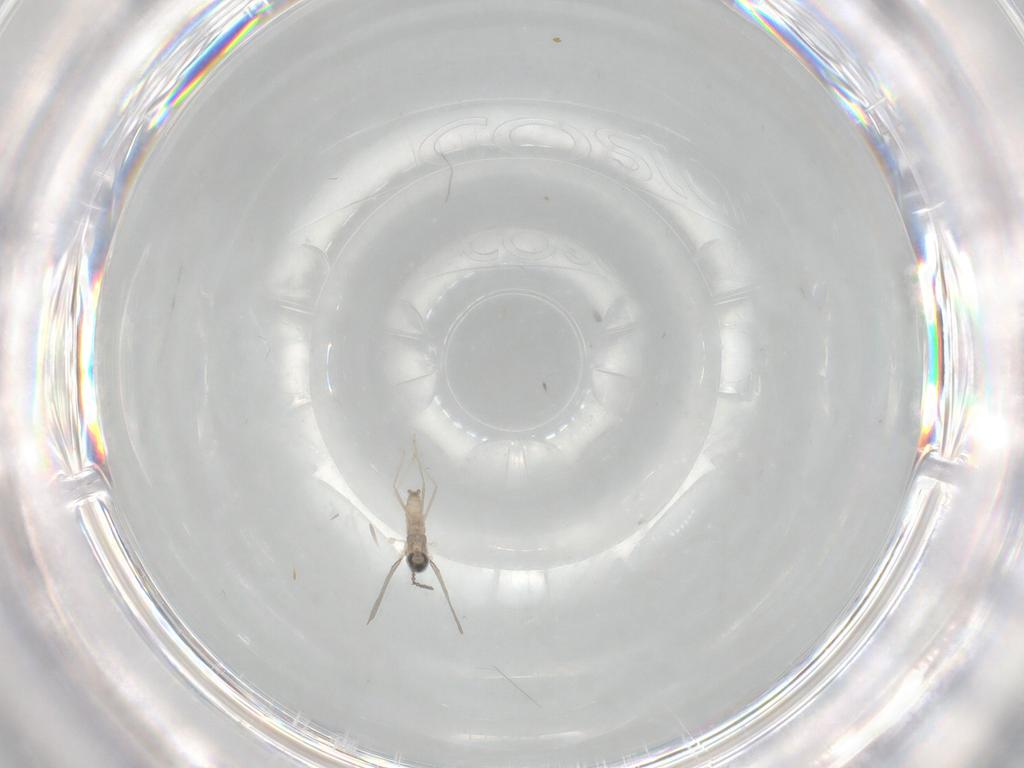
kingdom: Animalia
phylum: Arthropoda
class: Insecta
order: Diptera
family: Cecidomyiidae
